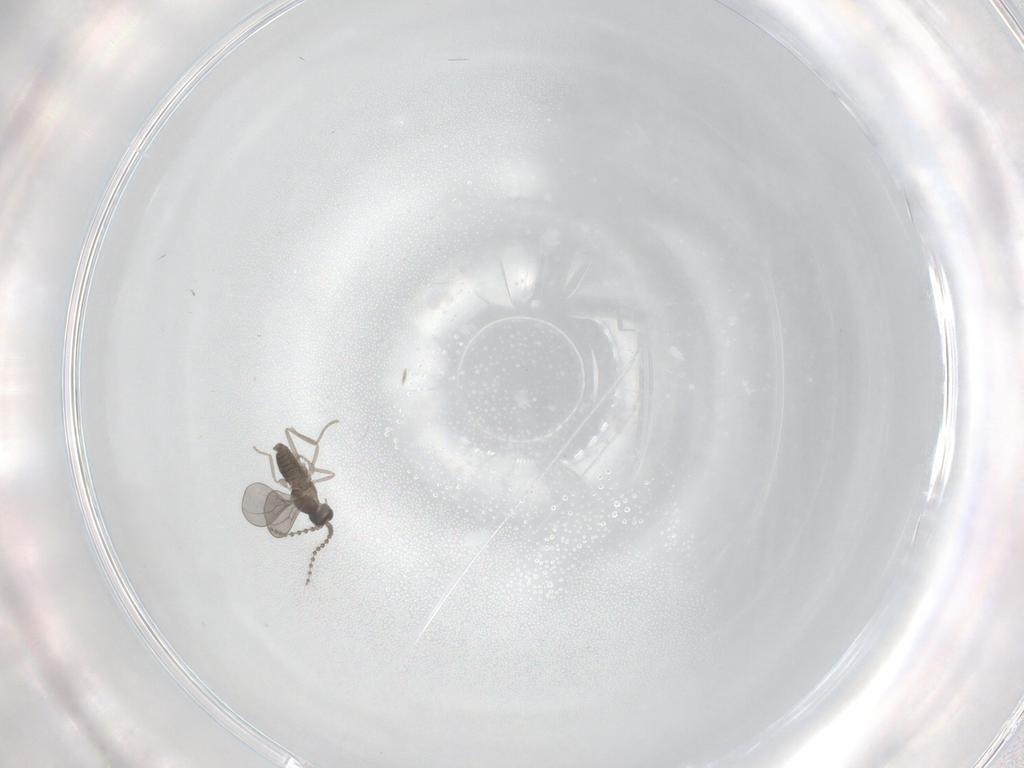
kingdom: Animalia
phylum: Arthropoda
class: Insecta
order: Diptera
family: Cecidomyiidae
